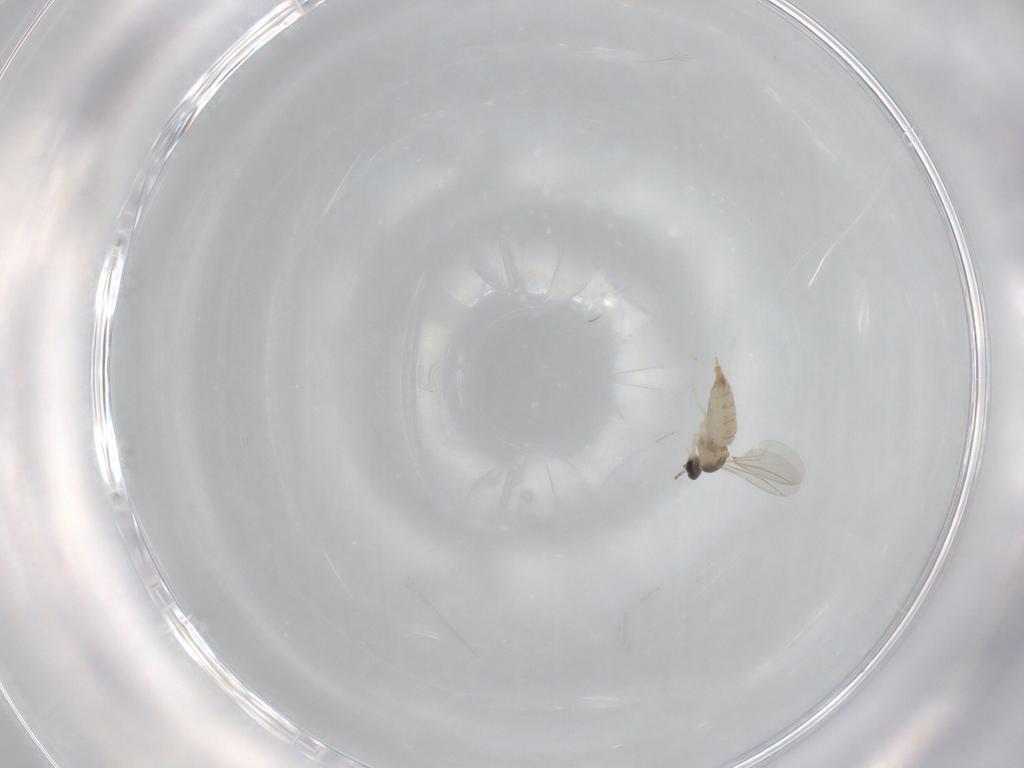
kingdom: Animalia
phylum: Arthropoda
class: Insecta
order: Diptera
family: Cecidomyiidae
